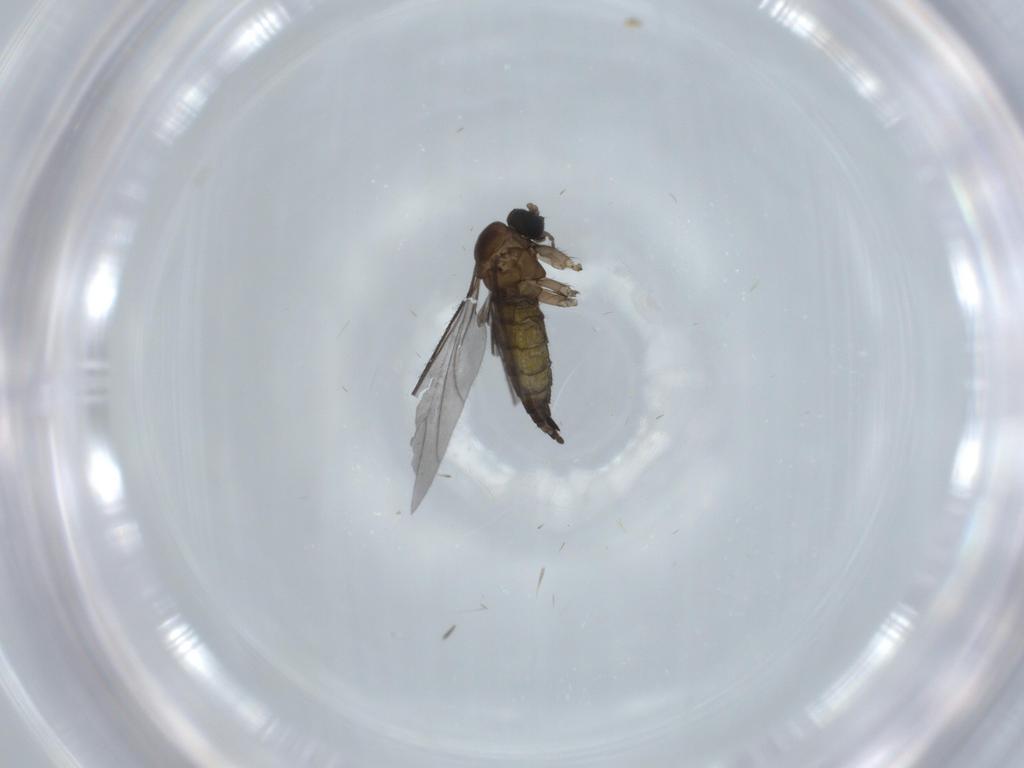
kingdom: Animalia
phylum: Arthropoda
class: Insecta
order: Diptera
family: Sciaridae
